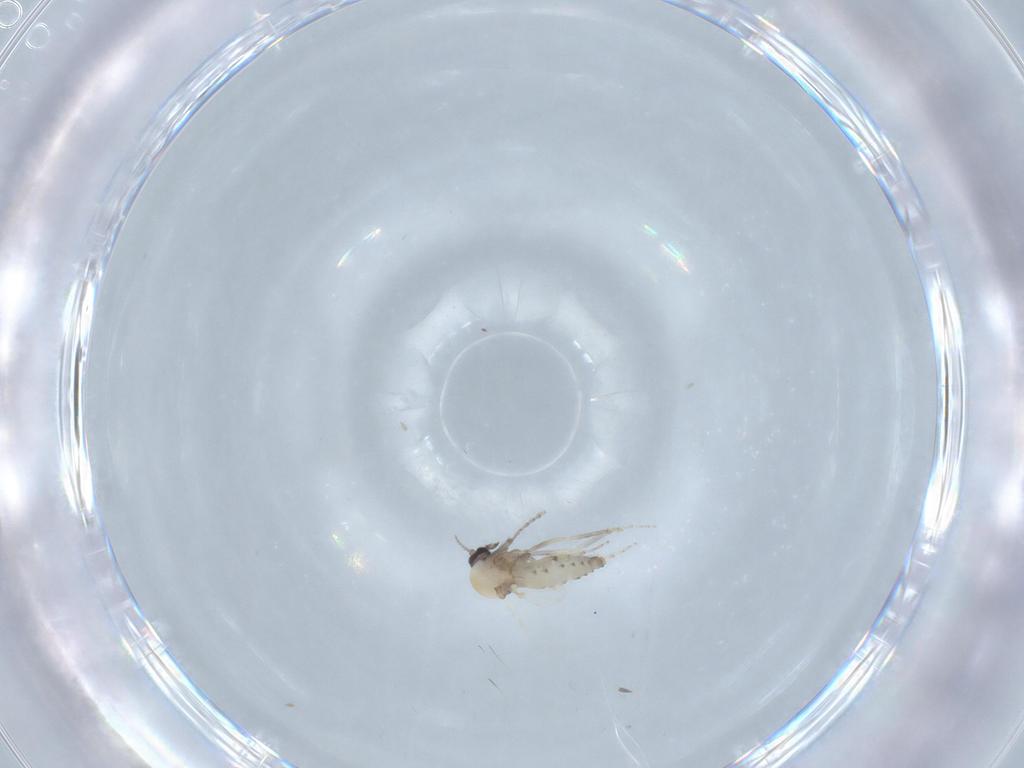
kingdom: Animalia
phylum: Arthropoda
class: Insecta
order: Diptera
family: Ceratopogonidae
